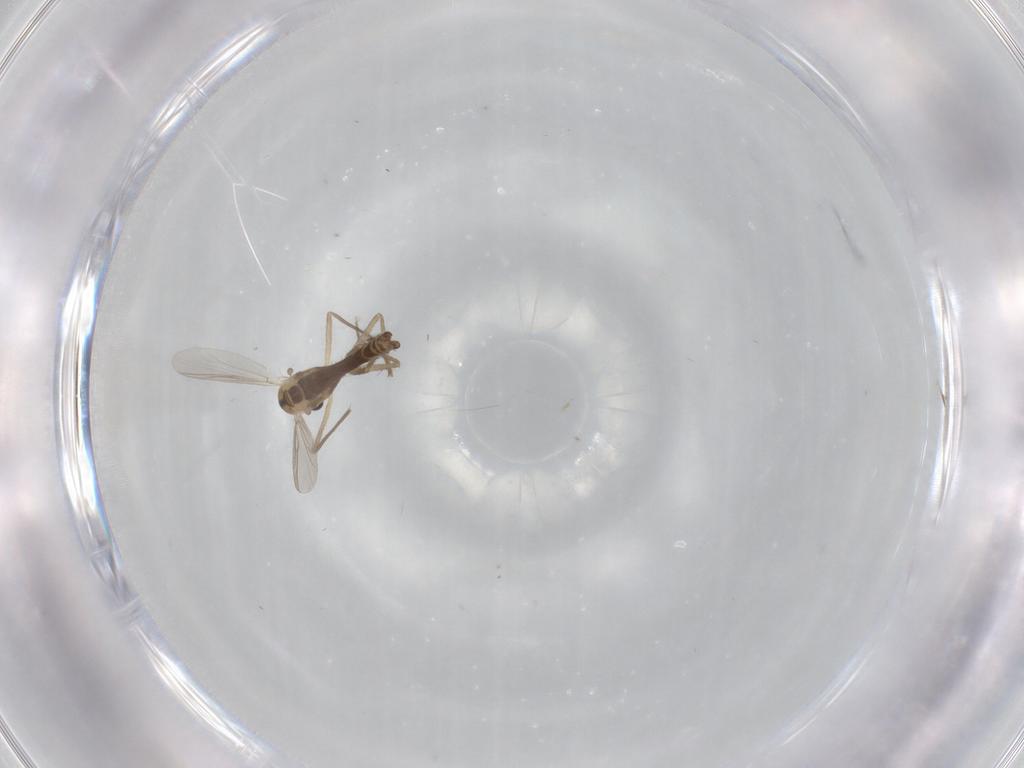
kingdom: Animalia
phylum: Arthropoda
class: Insecta
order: Diptera
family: Chironomidae
